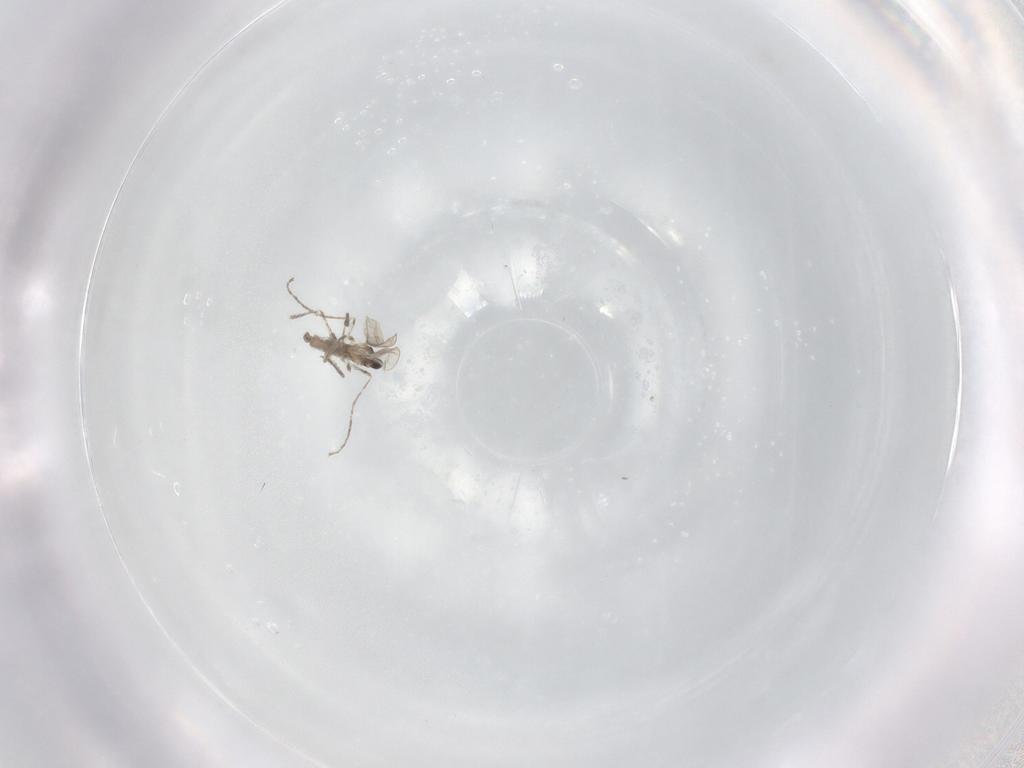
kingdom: Animalia
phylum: Arthropoda
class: Insecta
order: Diptera
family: Cecidomyiidae
